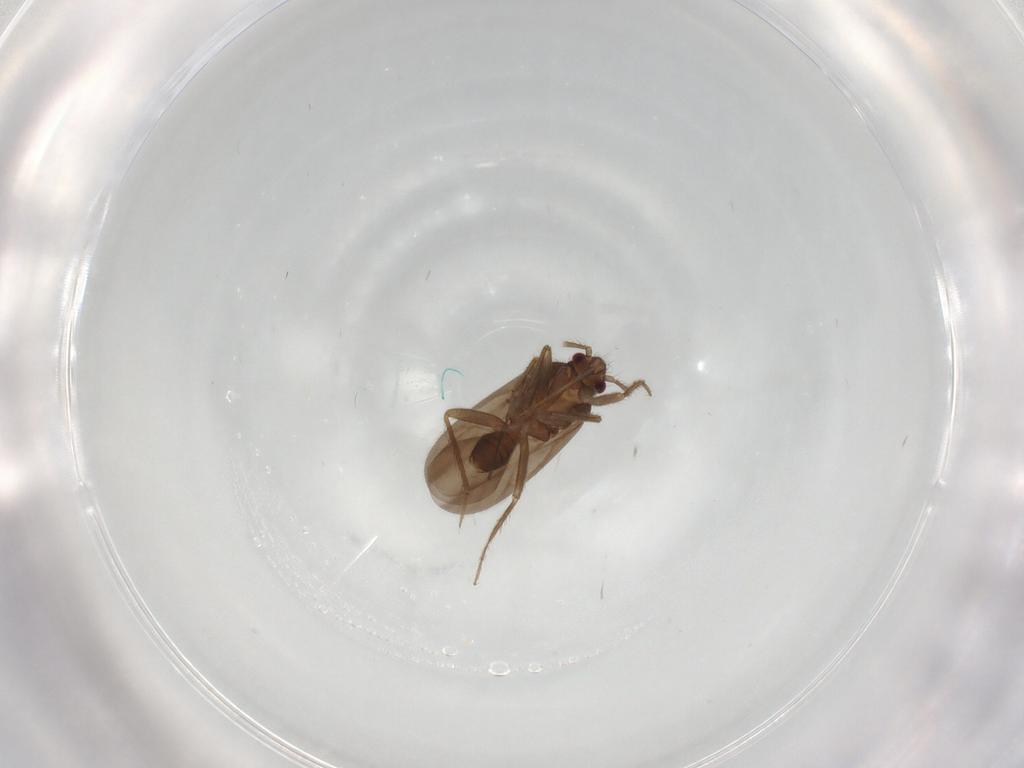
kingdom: Animalia
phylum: Arthropoda
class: Insecta
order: Hemiptera
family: Ceratocombidae
